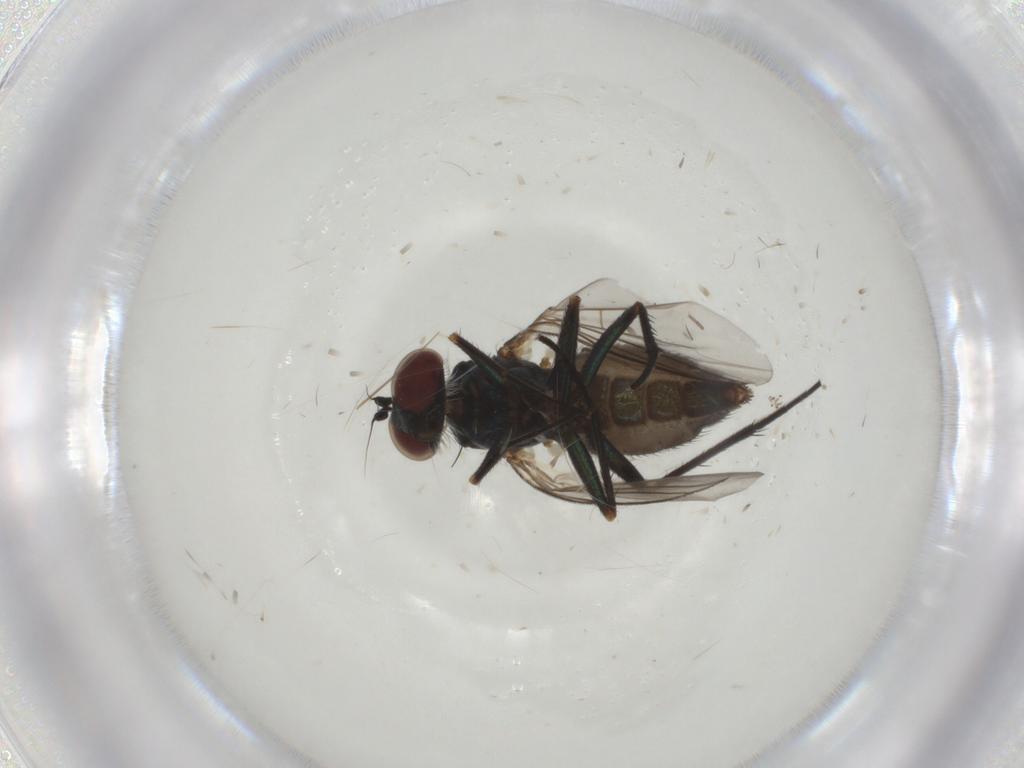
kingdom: Animalia
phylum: Arthropoda
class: Insecta
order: Diptera
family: Dolichopodidae
